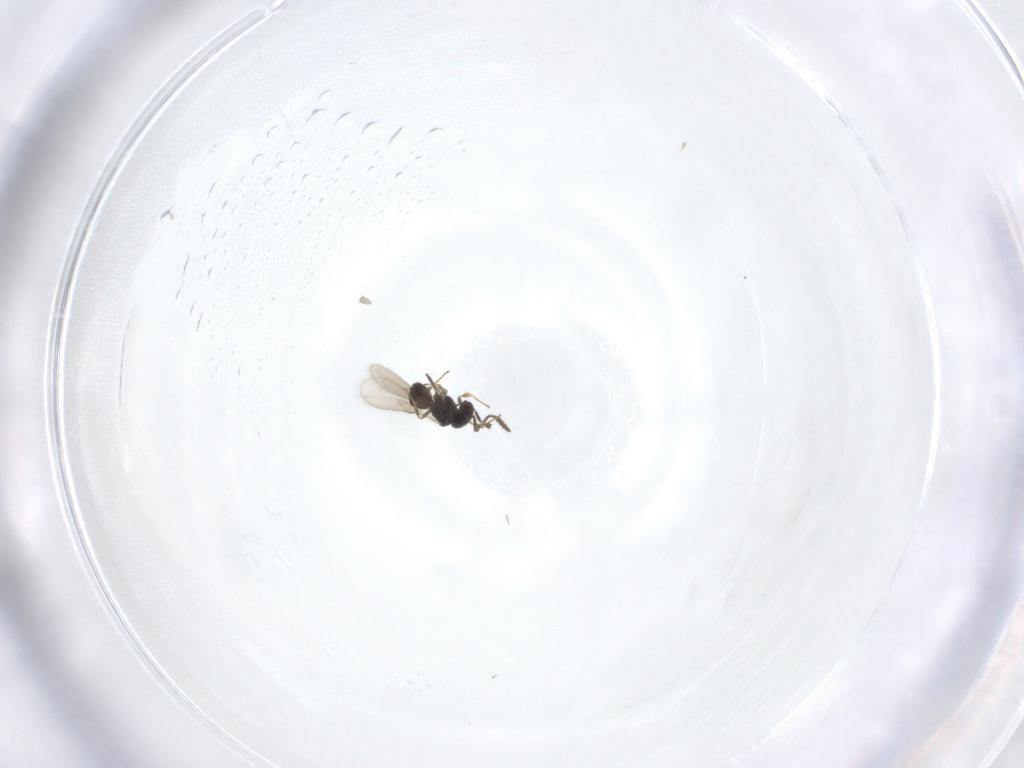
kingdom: Animalia
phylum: Arthropoda
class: Insecta
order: Hymenoptera
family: Scelionidae
